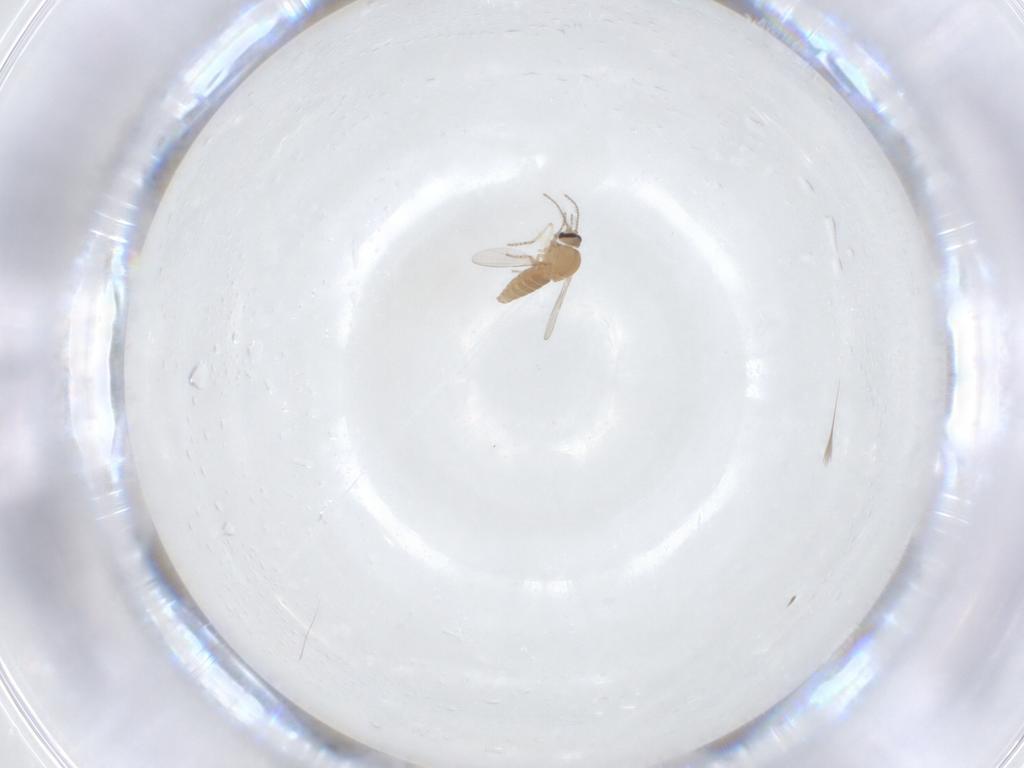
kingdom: Animalia
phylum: Arthropoda
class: Insecta
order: Diptera
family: Ceratopogonidae
